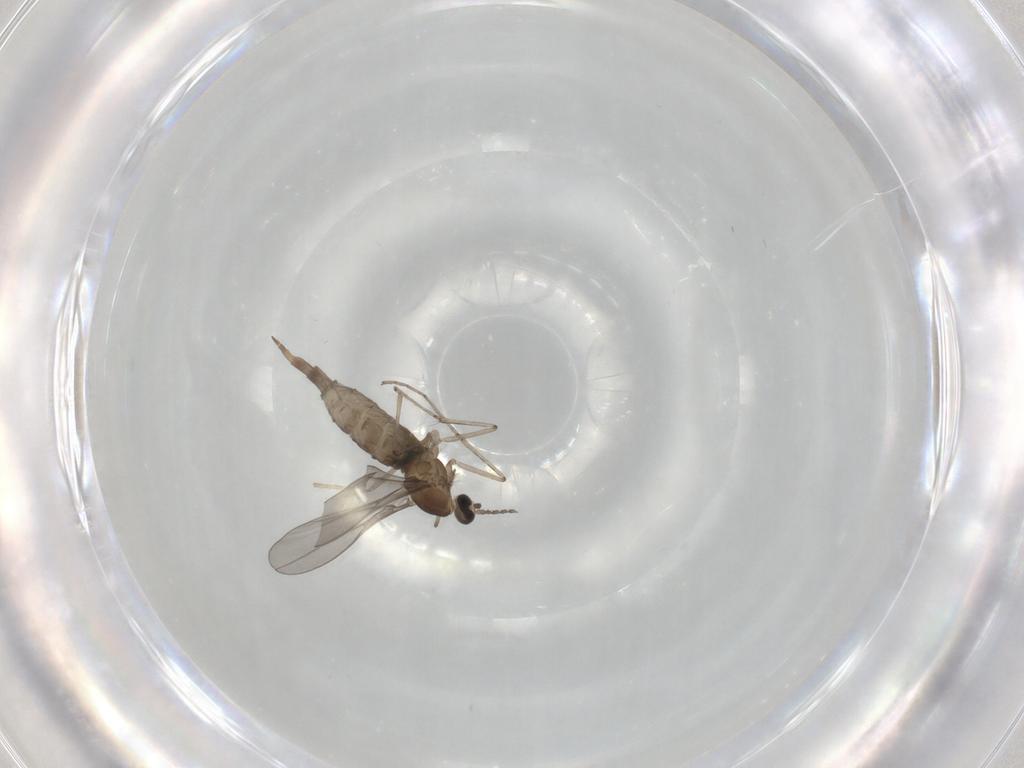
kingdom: Animalia
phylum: Arthropoda
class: Insecta
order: Diptera
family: Cecidomyiidae
